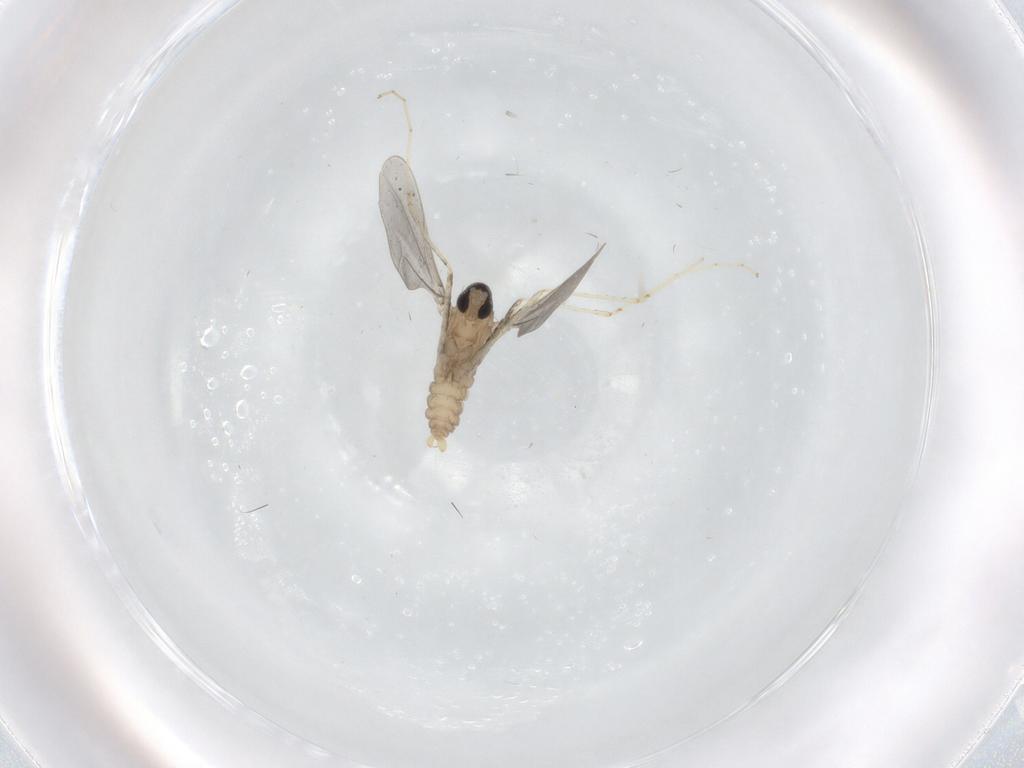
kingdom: Animalia
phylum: Arthropoda
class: Insecta
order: Diptera
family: Cecidomyiidae
